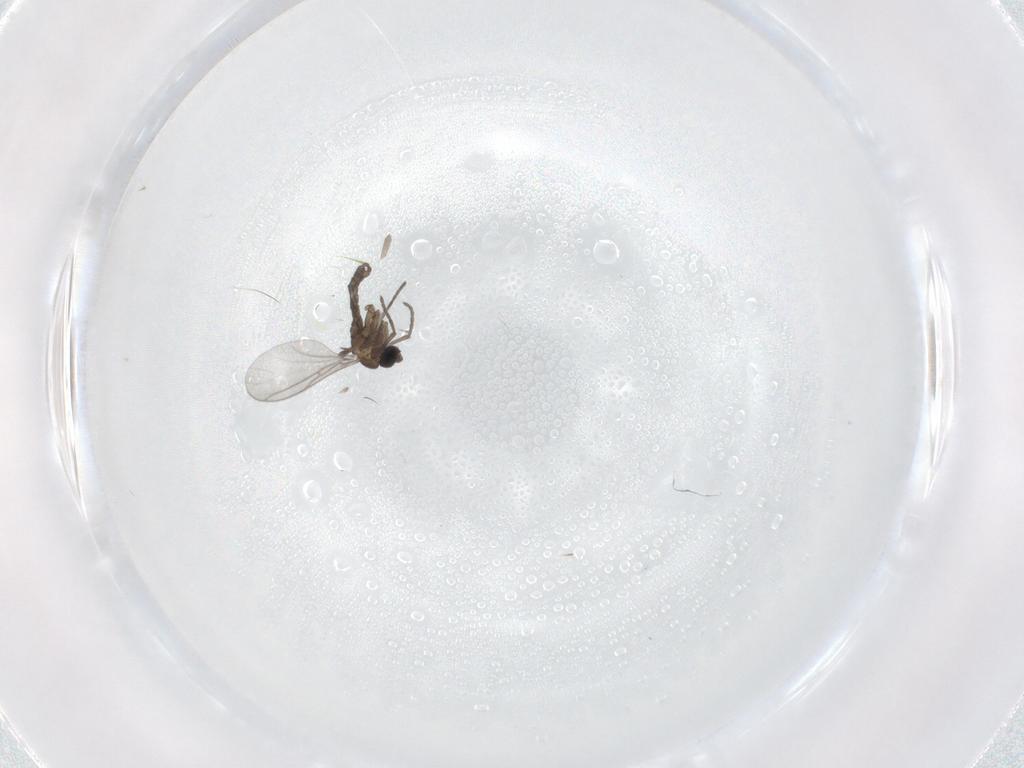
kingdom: Animalia
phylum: Arthropoda
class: Insecta
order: Diptera
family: Sciaridae
